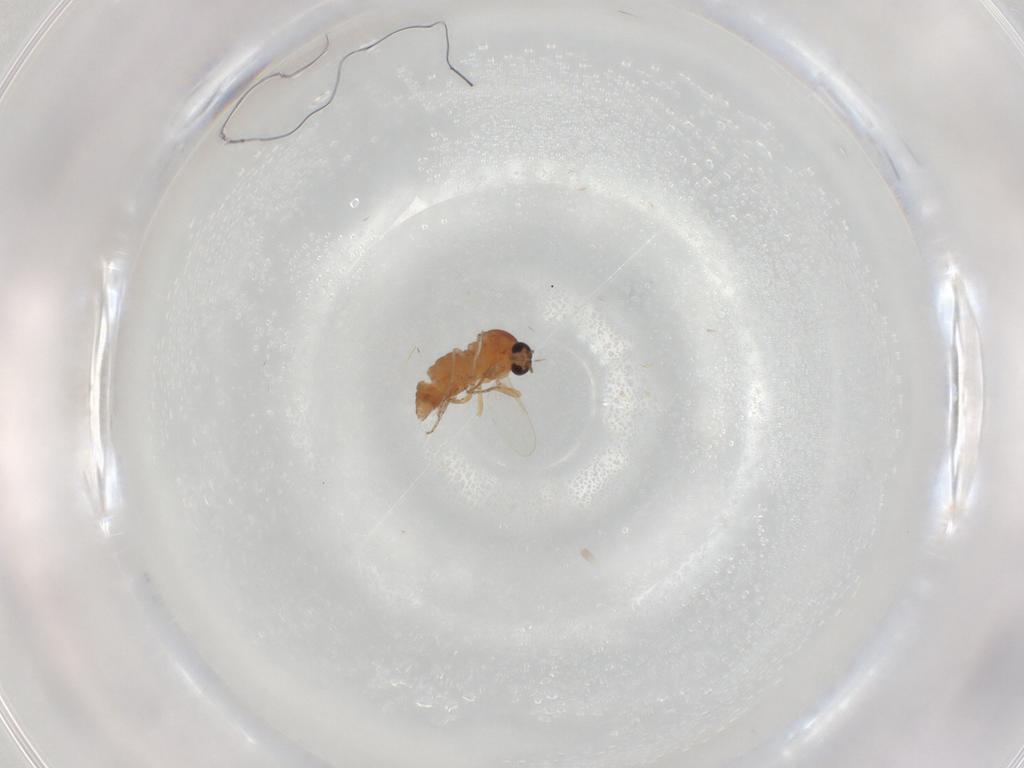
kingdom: Animalia
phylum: Arthropoda
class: Insecta
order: Diptera
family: Ceratopogonidae
